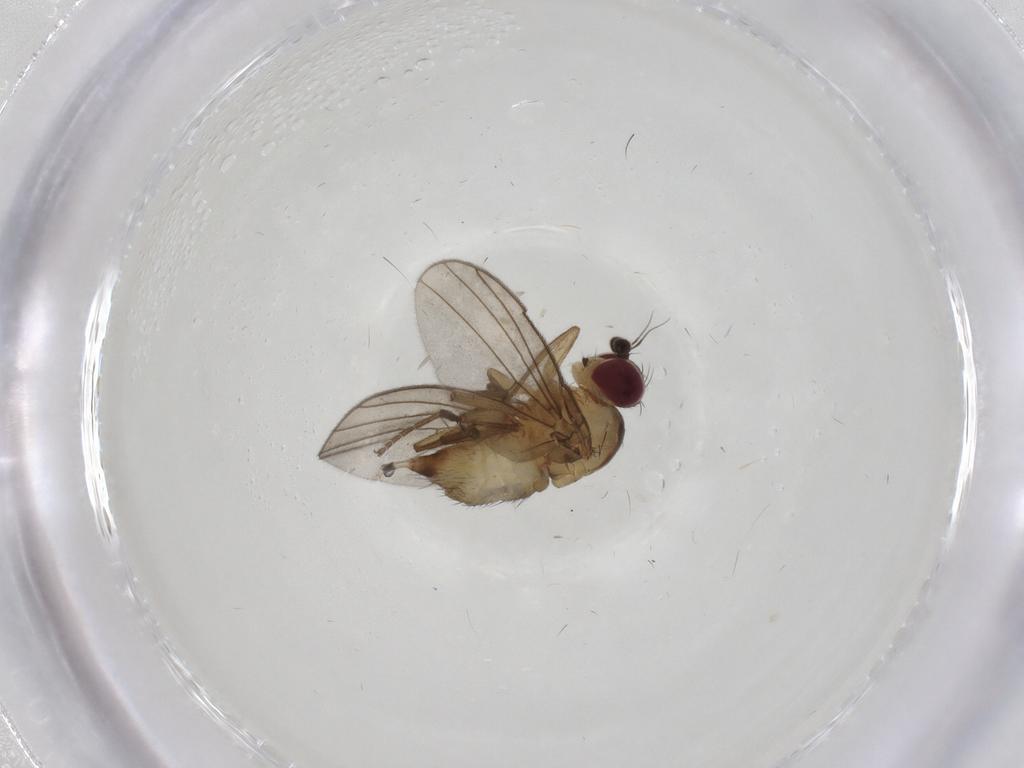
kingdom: Animalia
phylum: Arthropoda
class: Insecta
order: Diptera
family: Agromyzidae
